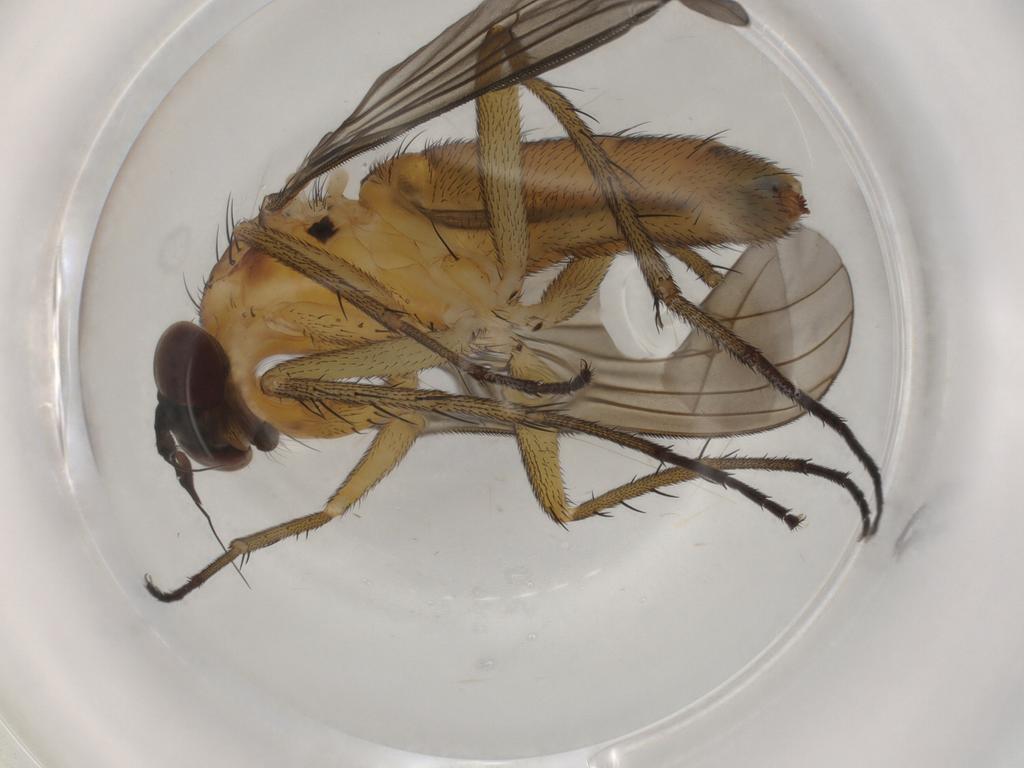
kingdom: Animalia
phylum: Arthropoda
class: Insecta
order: Diptera
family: Dolichopodidae
